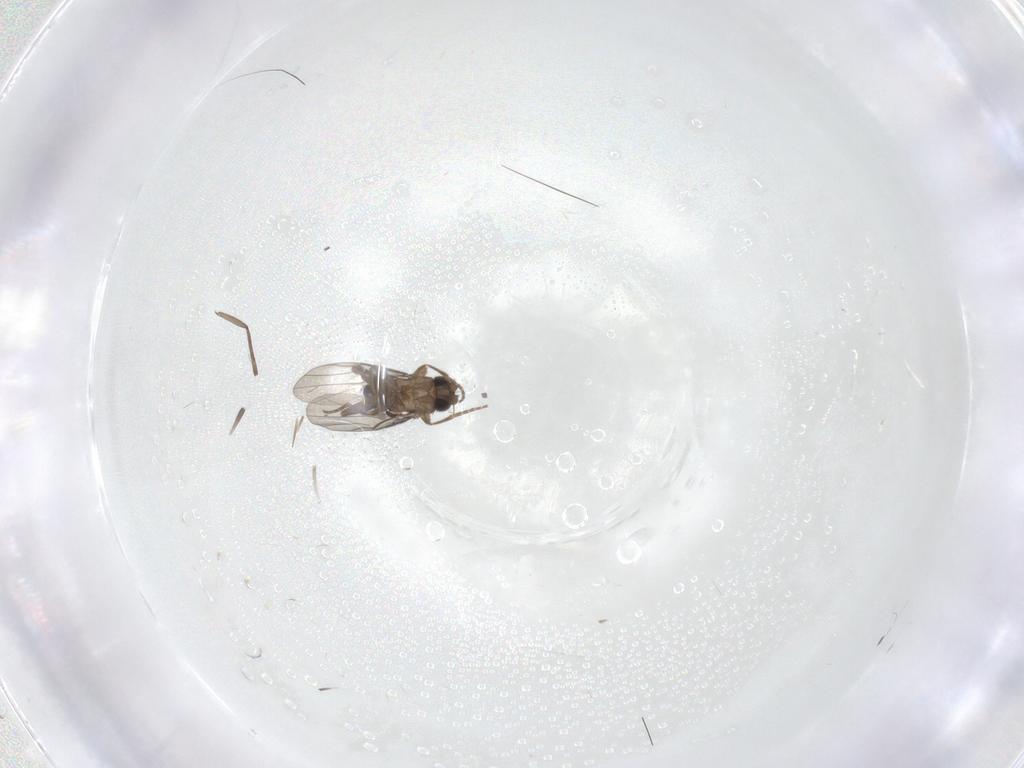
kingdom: Animalia
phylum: Arthropoda
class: Insecta
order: Diptera
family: Phoridae
